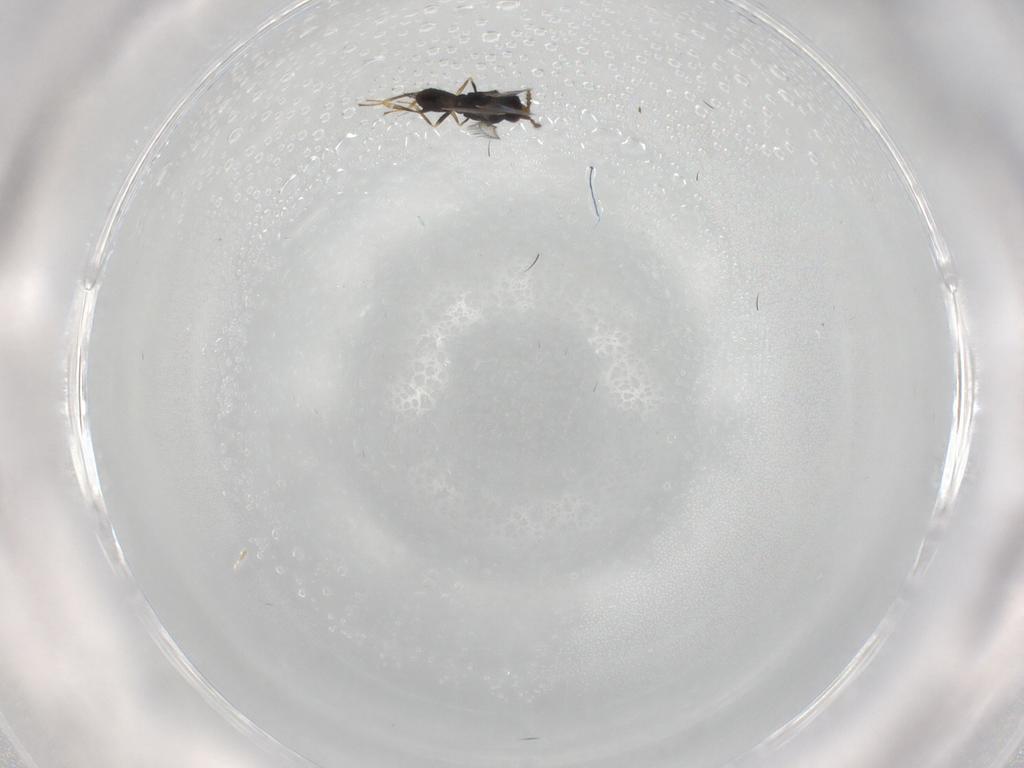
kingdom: Animalia
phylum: Arthropoda
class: Insecta
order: Hymenoptera
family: Eulophidae
